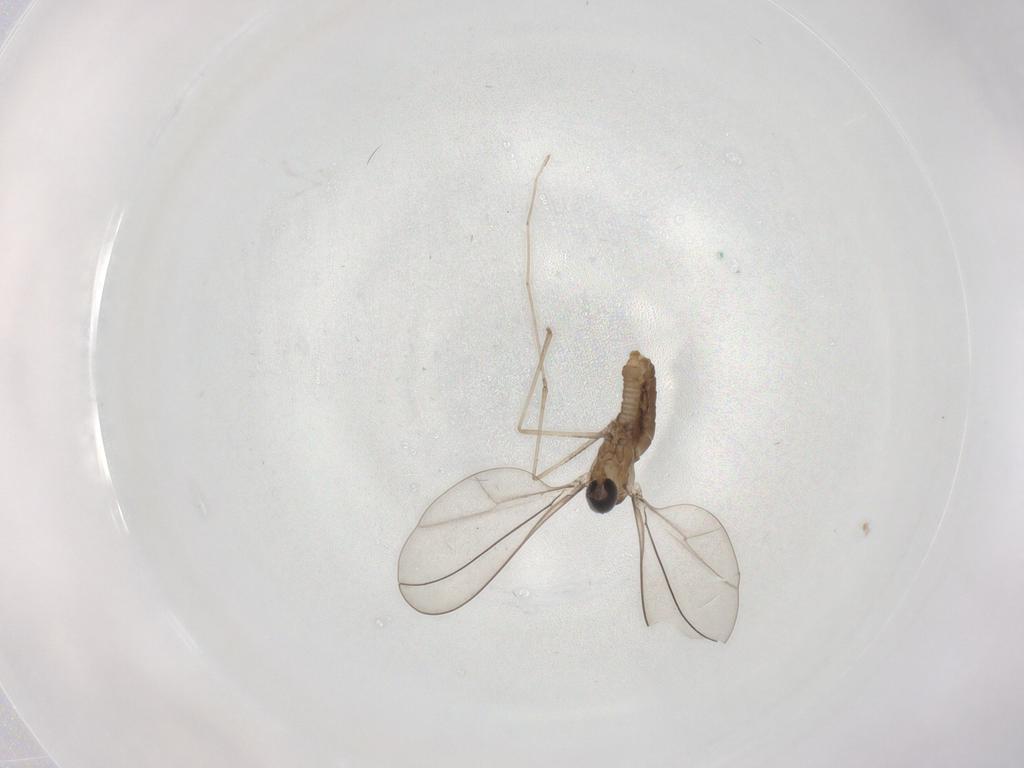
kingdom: Animalia
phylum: Arthropoda
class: Insecta
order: Diptera
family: Cecidomyiidae
